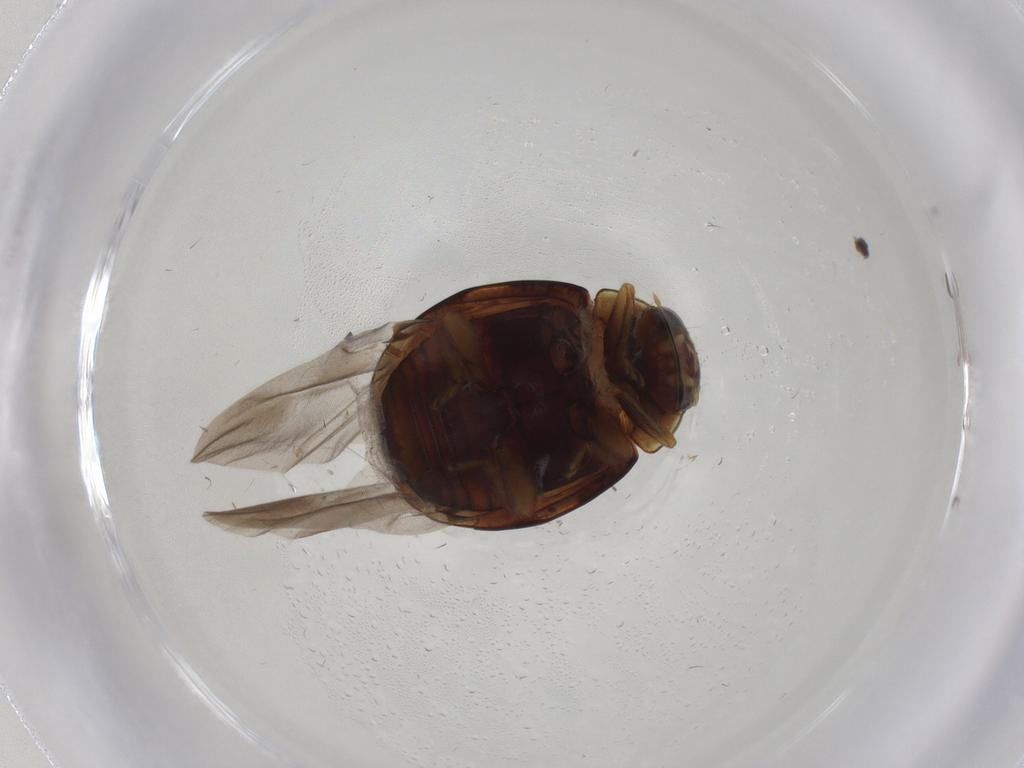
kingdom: Animalia
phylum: Arthropoda
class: Insecta
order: Coleoptera
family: Coccinellidae
